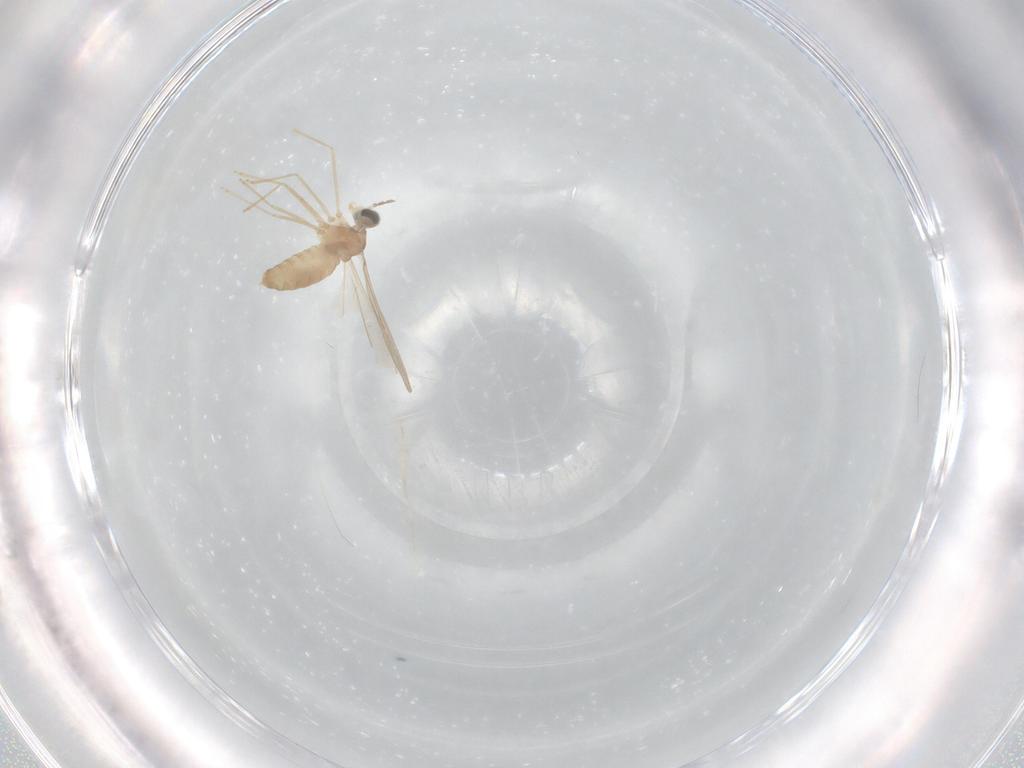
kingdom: Animalia
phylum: Arthropoda
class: Insecta
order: Diptera
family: Cecidomyiidae
